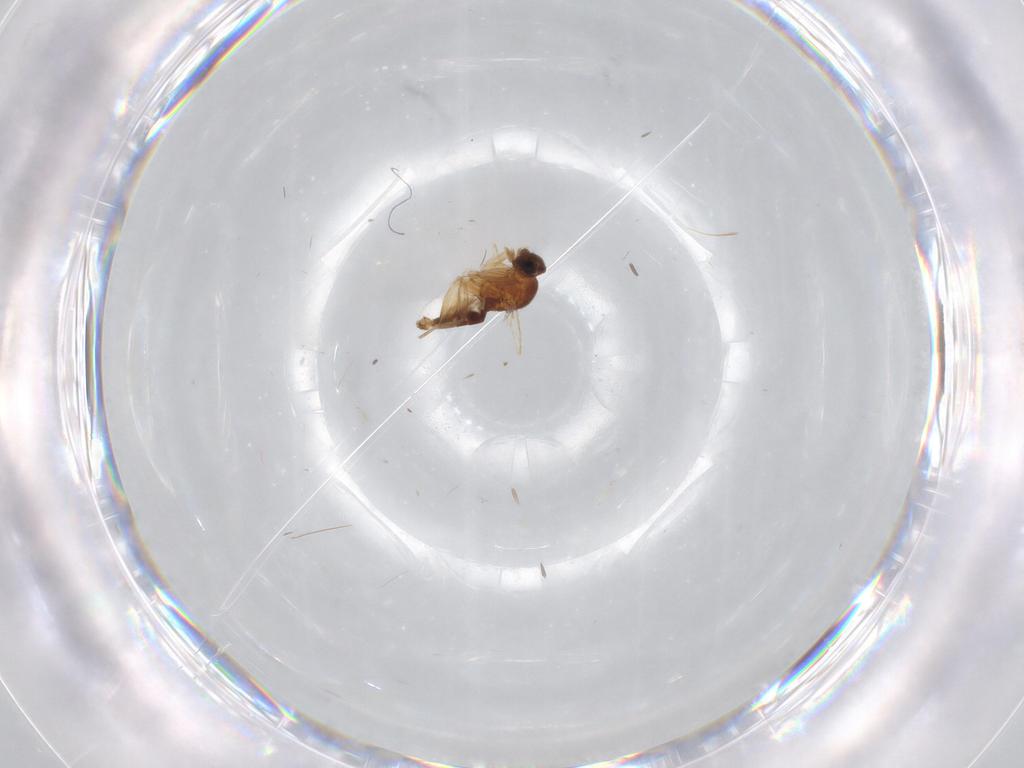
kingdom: Animalia
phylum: Arthropoda
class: Insecta
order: Diptera
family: Phoridae
